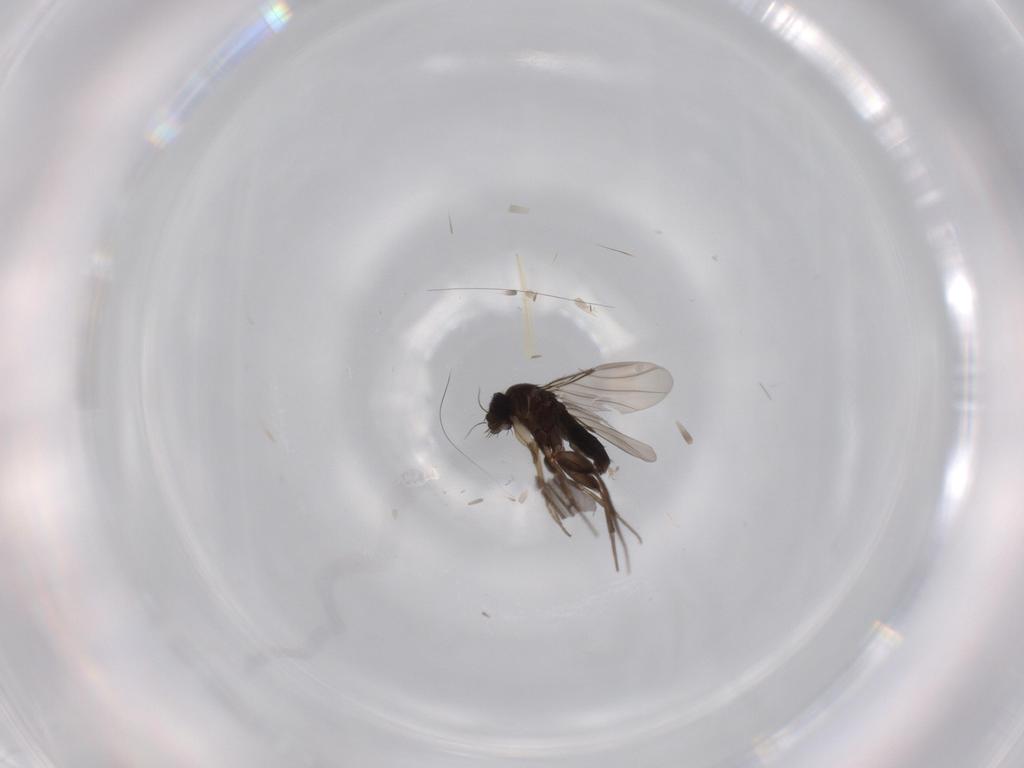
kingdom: Animalia
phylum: Arthropoda
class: Insecta
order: Diptera
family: Phoridae
